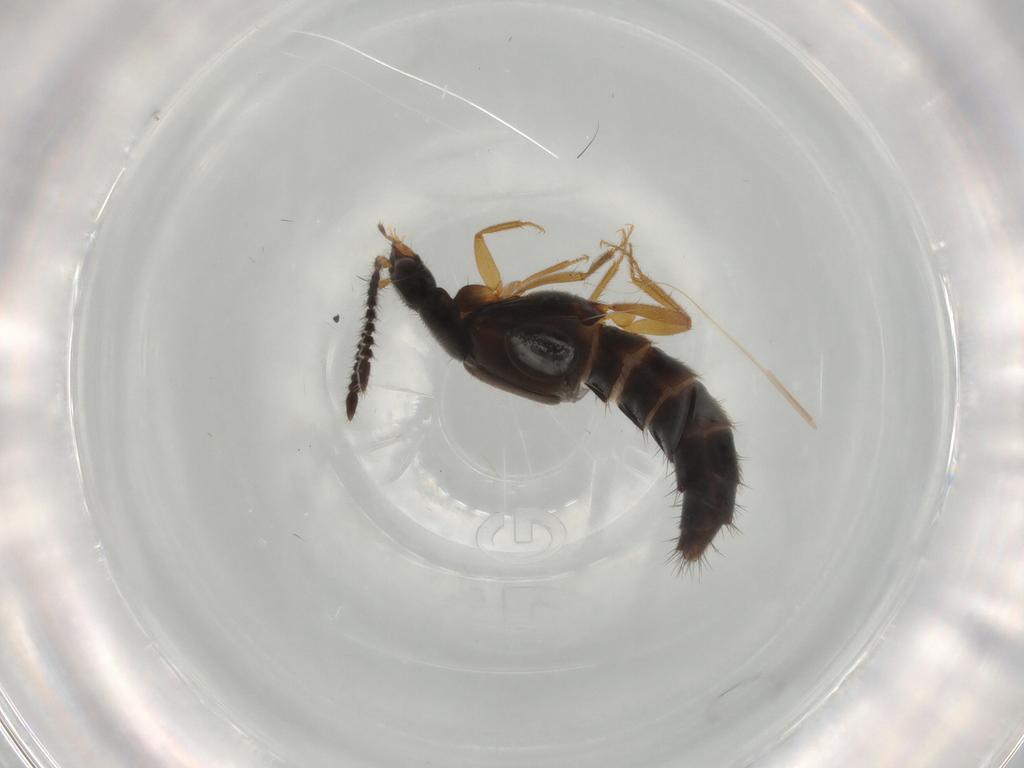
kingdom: Animalia
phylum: Arthropoda
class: Insecta
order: Coleoptera
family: Staphylinidae
